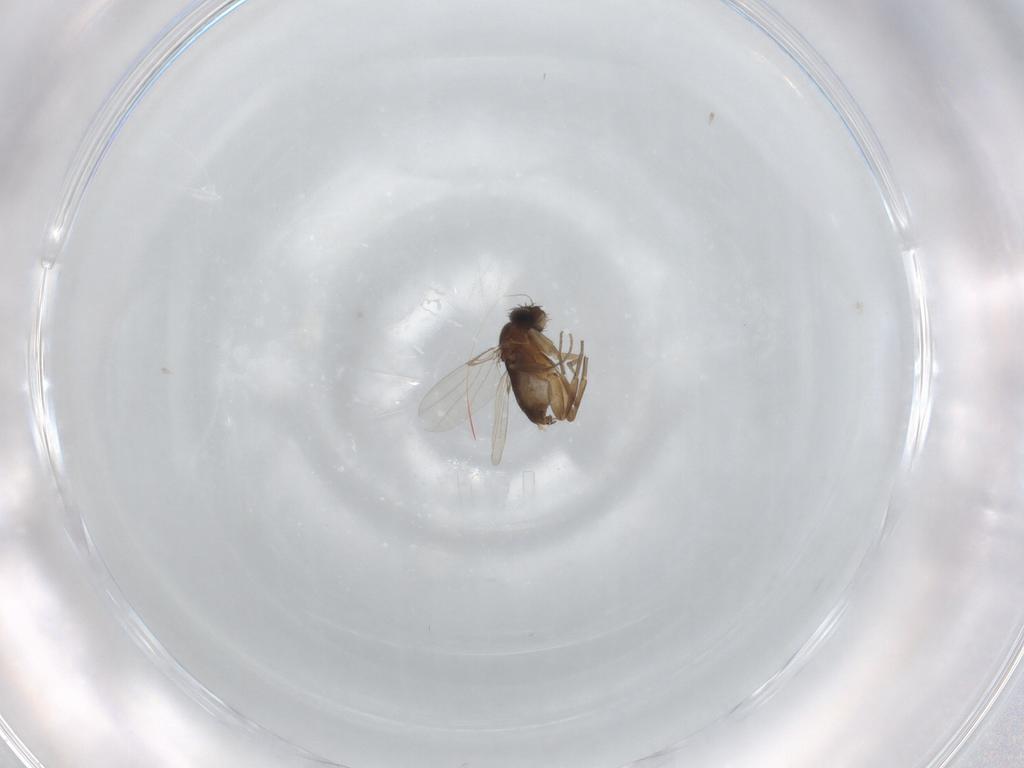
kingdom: Animalia
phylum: Arthropoda
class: Insecta
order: Diptera
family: Phoridae
